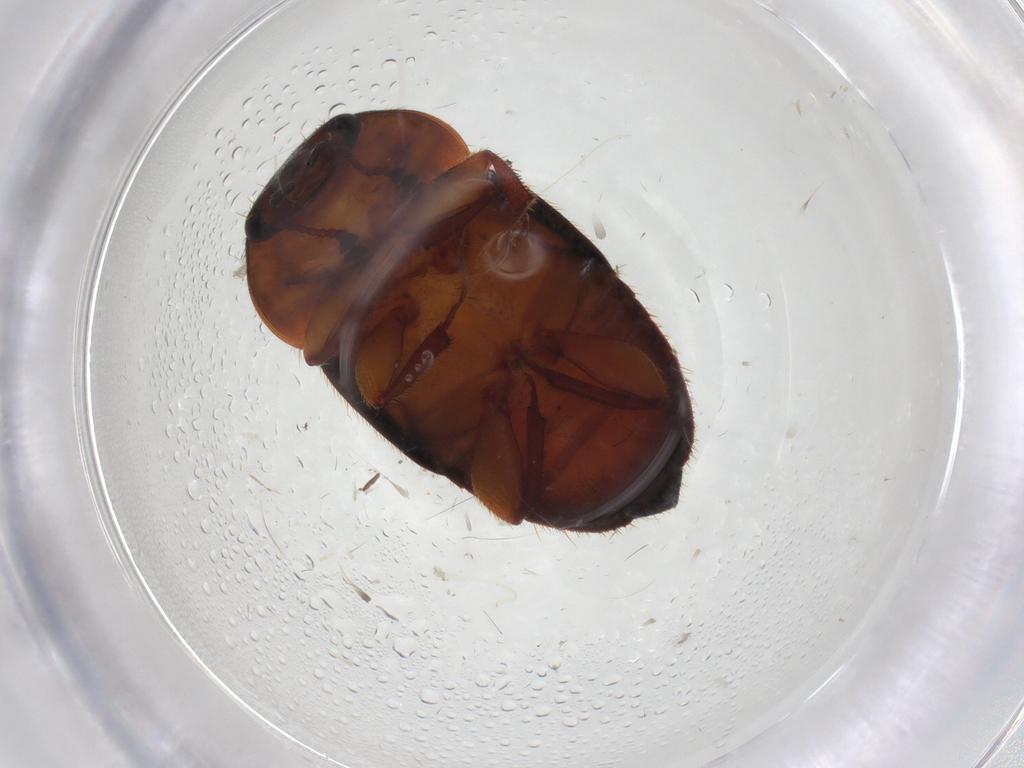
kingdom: Animalia
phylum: Arthropoda
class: Insecta
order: Coleoptera
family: Nitidulidae
